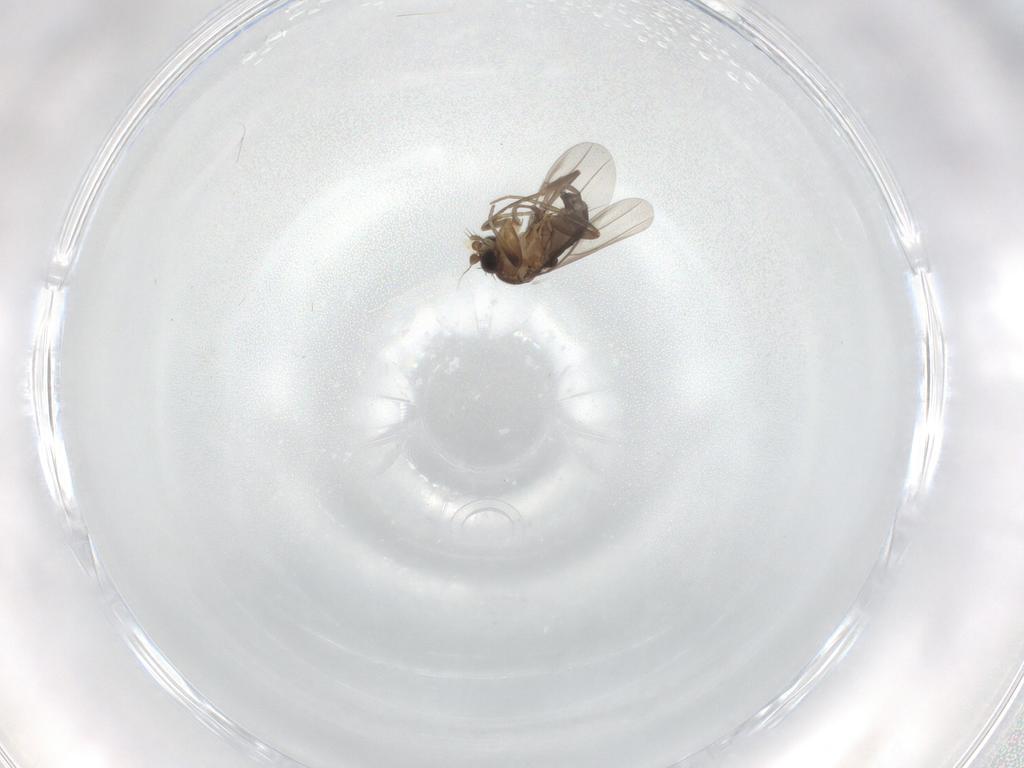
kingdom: Animalia
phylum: Arthropoda
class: Insecta
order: Diptera
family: Phoridae
